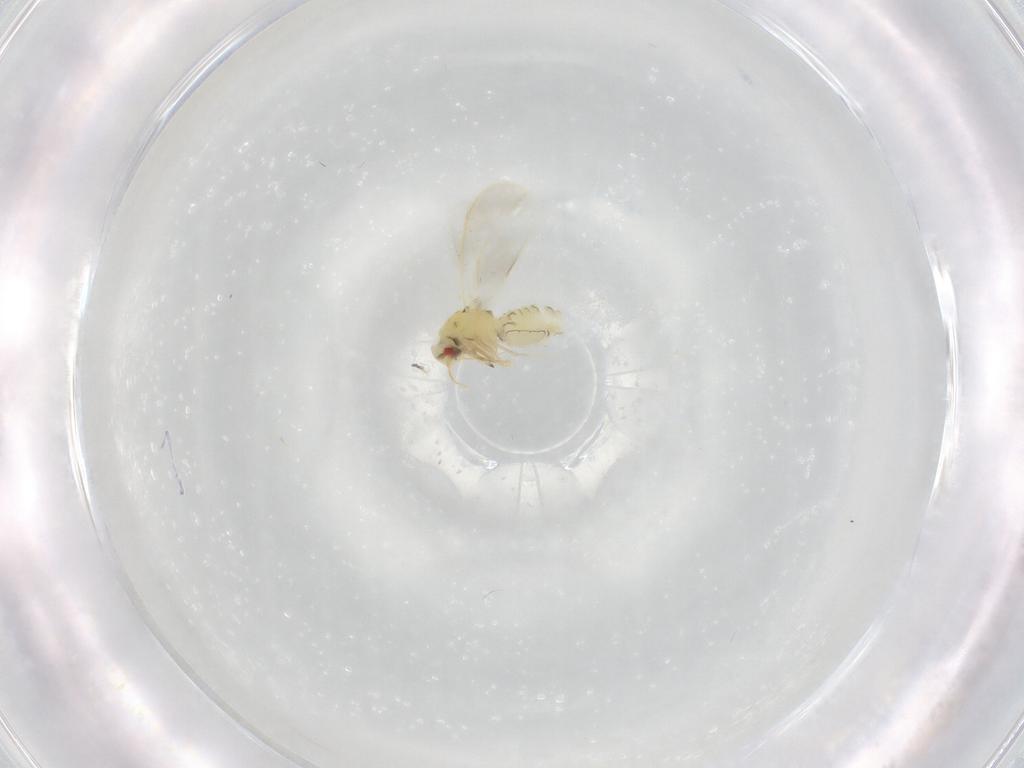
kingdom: Animalia
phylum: Arthropoda
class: Insecta
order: Hemiptera
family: Aleyrodidae
